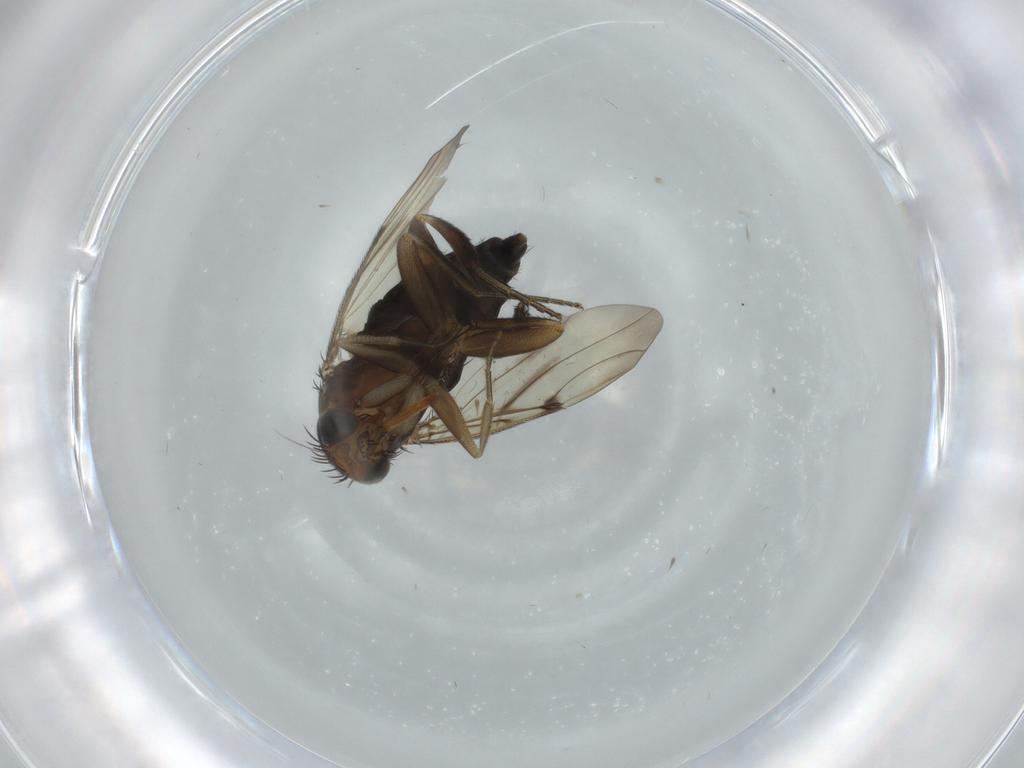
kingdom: Animalia
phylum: Arthropoda
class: Insecta
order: Diptera
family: Phoridae
